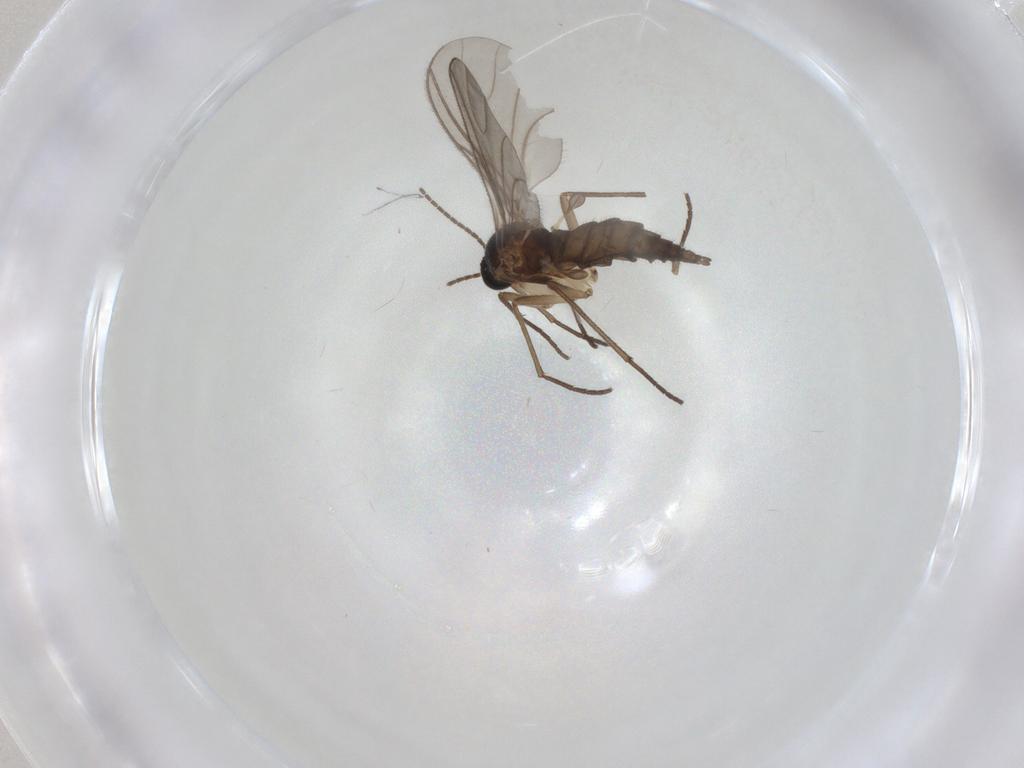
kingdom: Animalia
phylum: Arthropoda
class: Insecta
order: Diptera
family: Sciaridae
